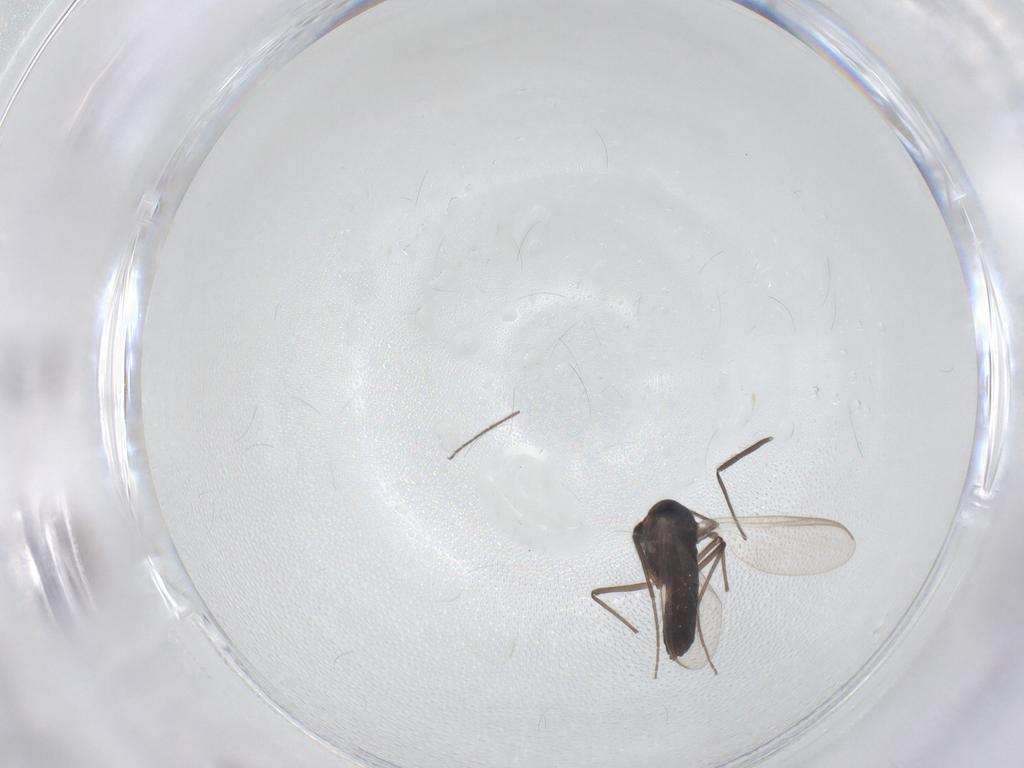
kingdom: Animalia
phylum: Arthropoda
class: Insecta
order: Diptera
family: Chironomidae
